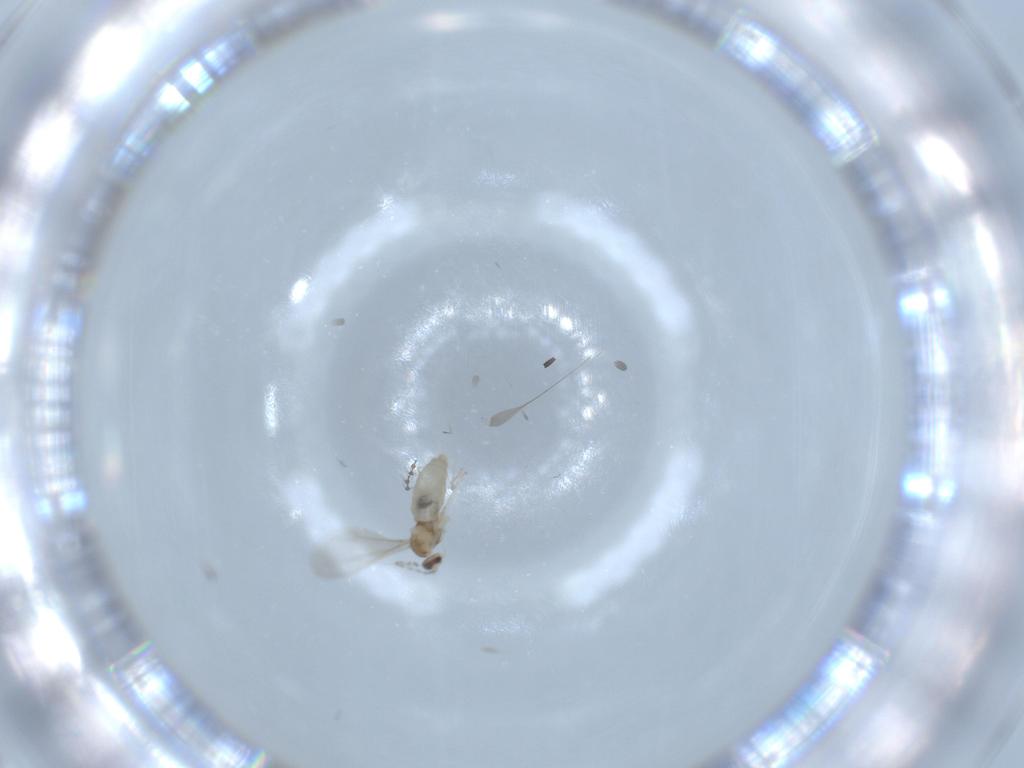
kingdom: Animalia
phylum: Arthropoda
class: Insecta
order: Diptera
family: Cecidomyiidae
